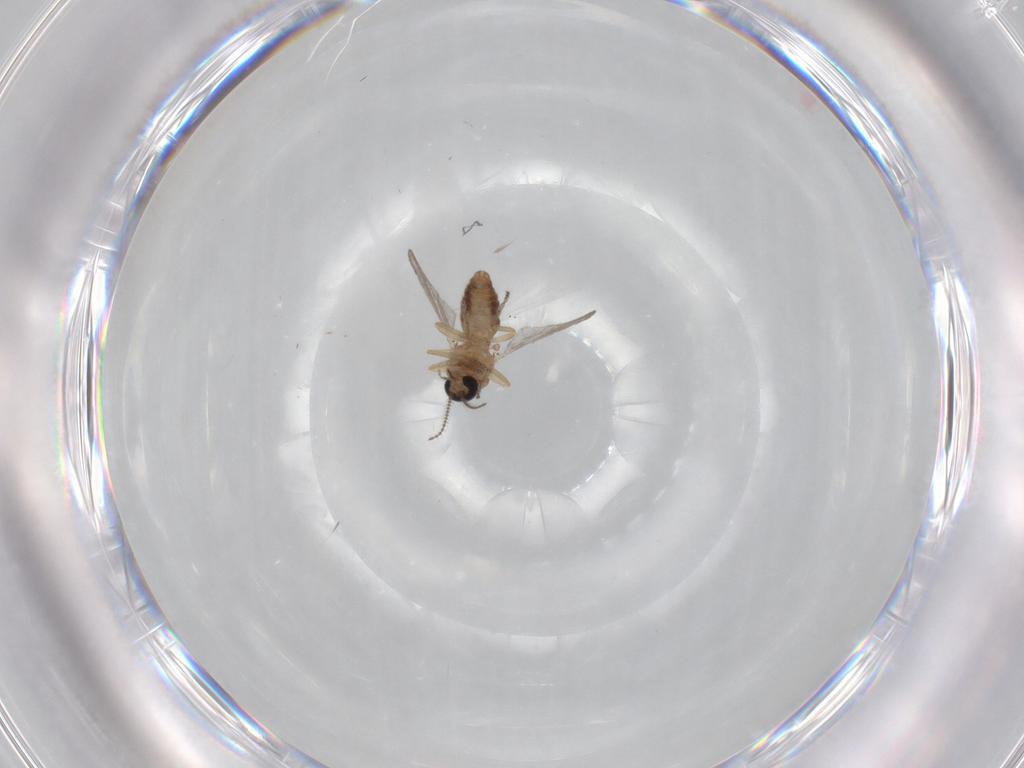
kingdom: Animalia
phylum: Arthropoda
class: Insecta
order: Diptera
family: Ceratopogonidae
